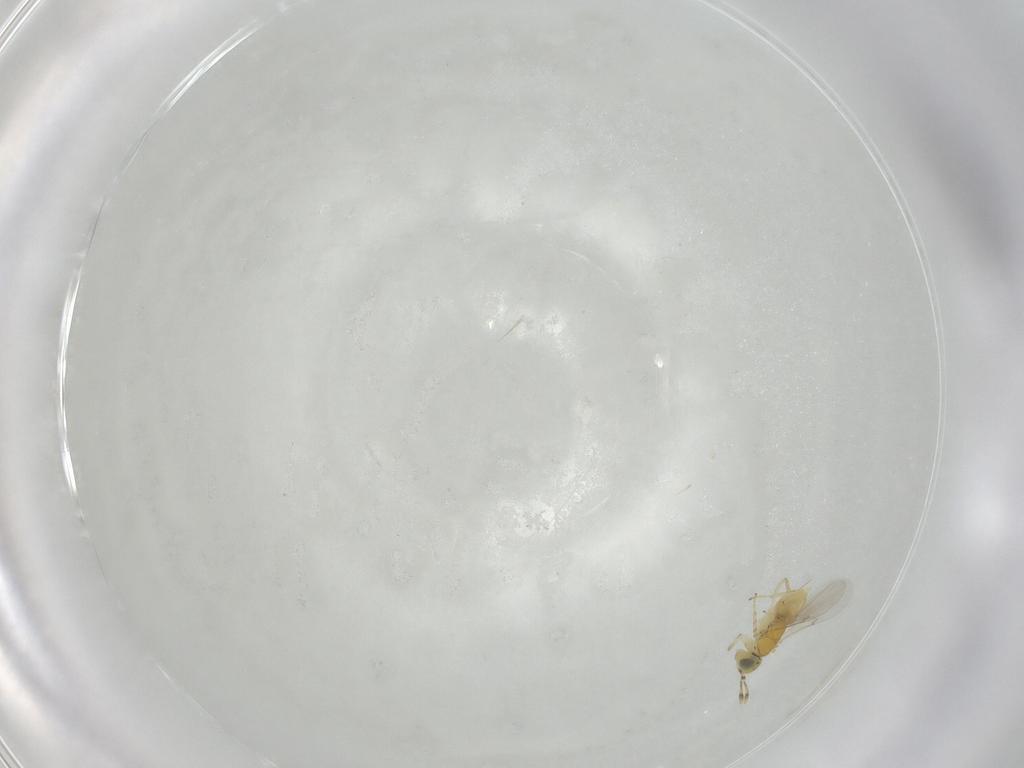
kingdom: Animalia
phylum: Arthropoda
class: Insecta
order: Hymenoptera
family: Encyrtidae
